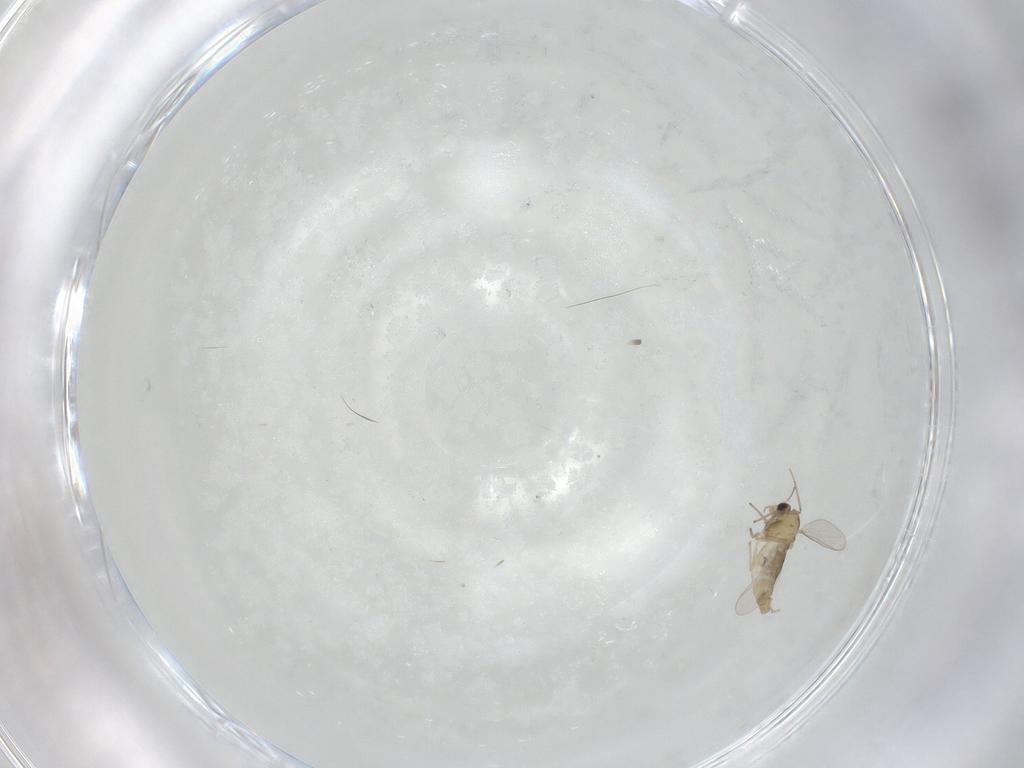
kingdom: Animalia
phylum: Arthropoda
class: Insecta
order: Diptera
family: Chironomidae
